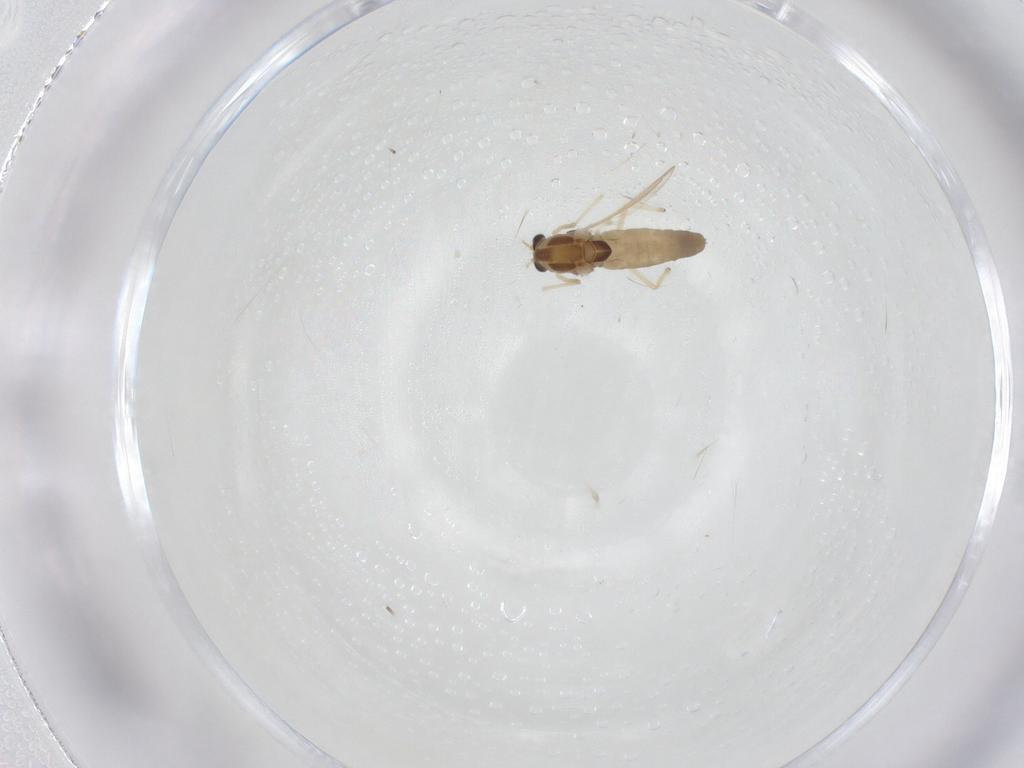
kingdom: Animalia
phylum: Arthropoda
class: Insecta
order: Diptera
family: Chironomidae
